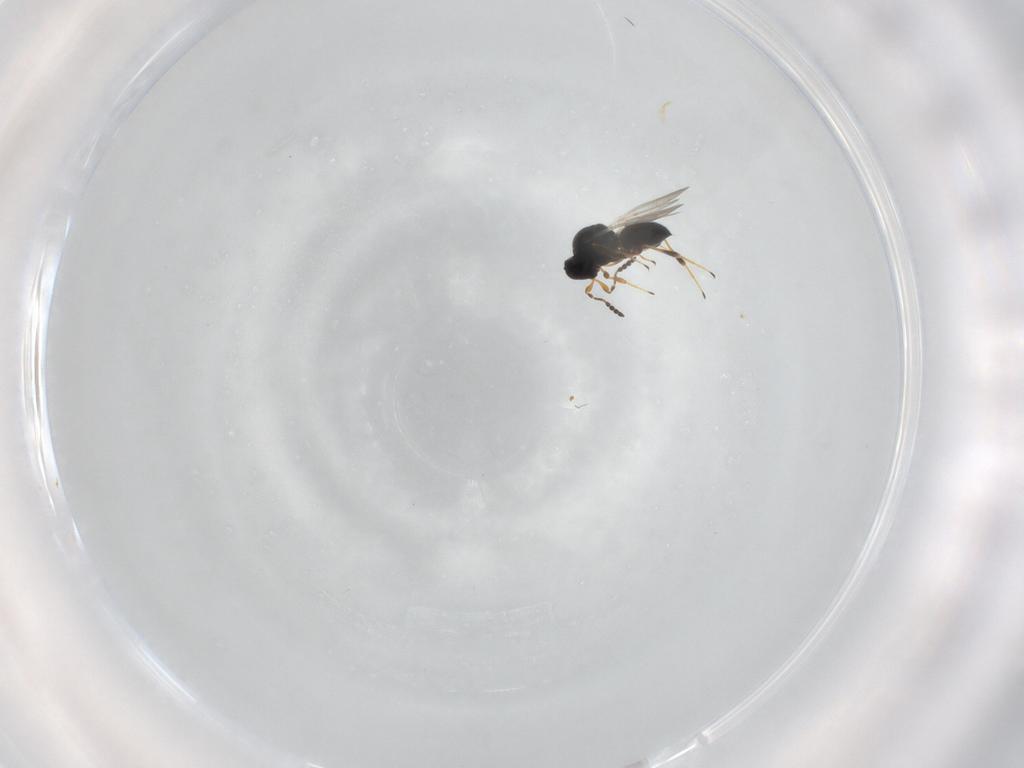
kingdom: Animalia
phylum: Arthropoda
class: Insecta
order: Hymenoptera
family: Platygastridae
